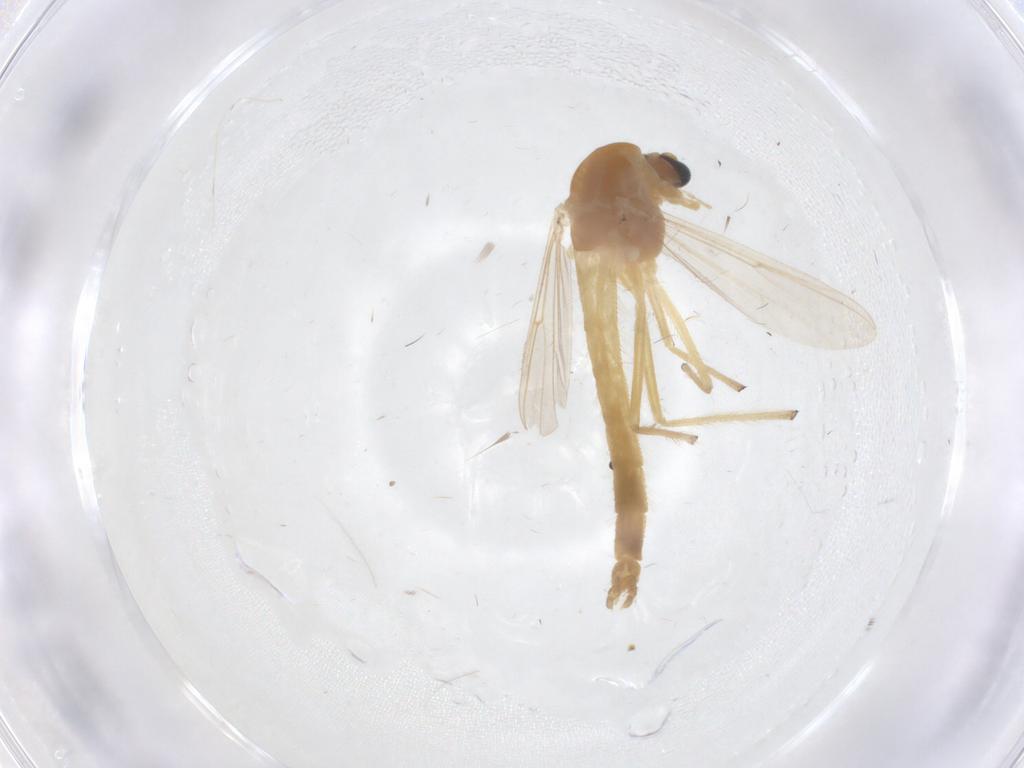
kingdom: Animalia
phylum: Arthropoda
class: Insecta
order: Diptera
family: Chironomidae
